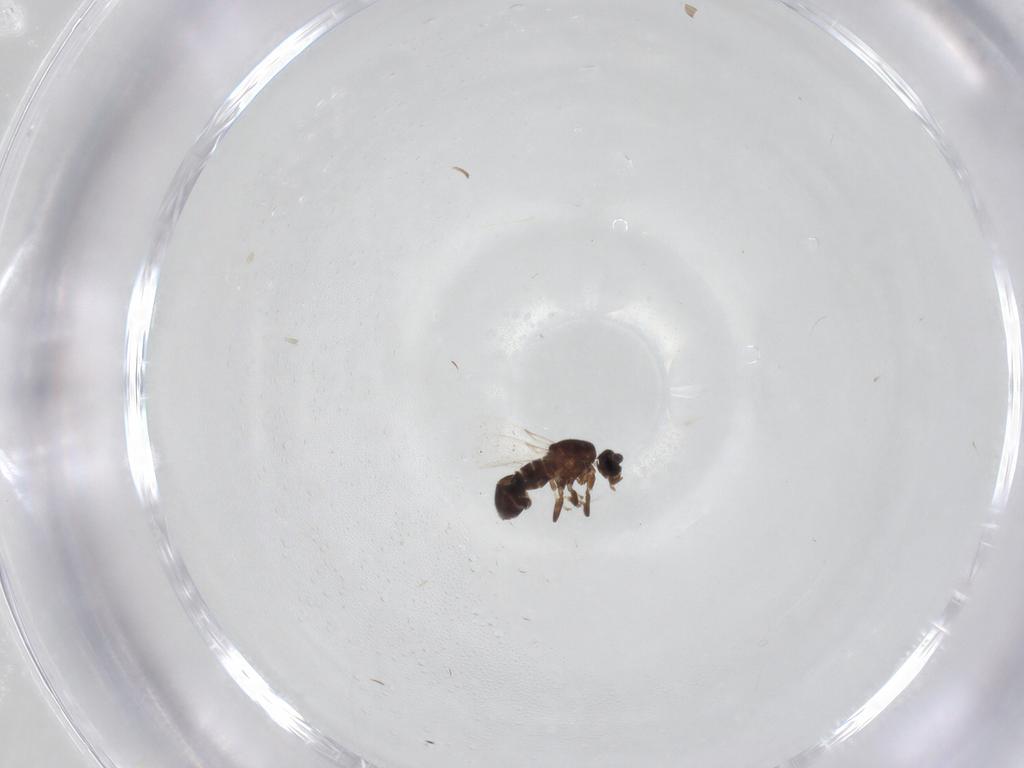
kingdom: Animalia
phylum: Arthropoda
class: Insecta
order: Diptera
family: Scatopsidae
